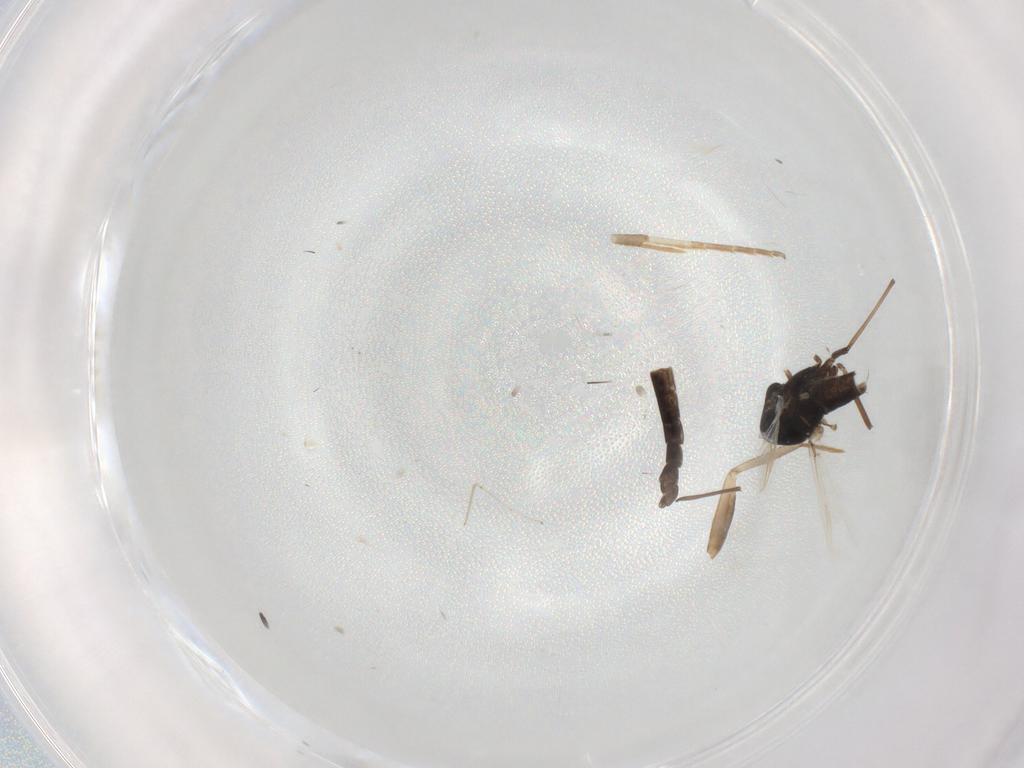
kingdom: Animalia
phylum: Arthropoda
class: Insecta
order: Diptera
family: Chironomidae
